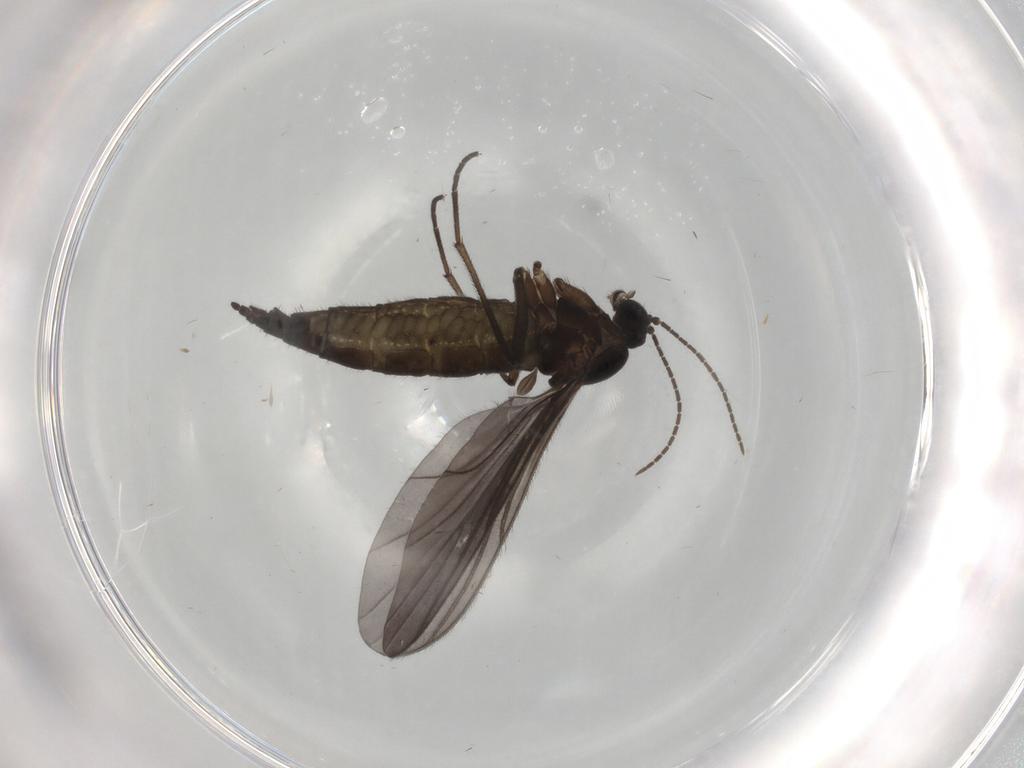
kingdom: Animalia
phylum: Arthropoda
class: Insecta
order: Diptera
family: Sciaridae
